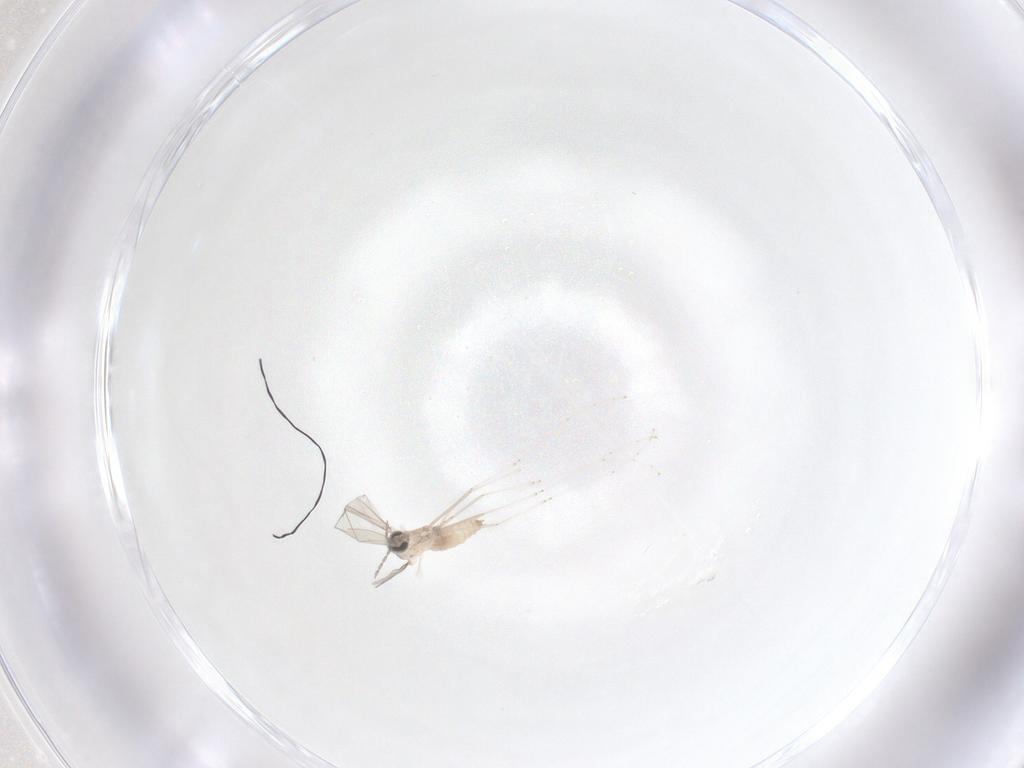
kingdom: Animalia
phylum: Arthropoda
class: Insecta
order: Diptera
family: Cecidomyiidae
